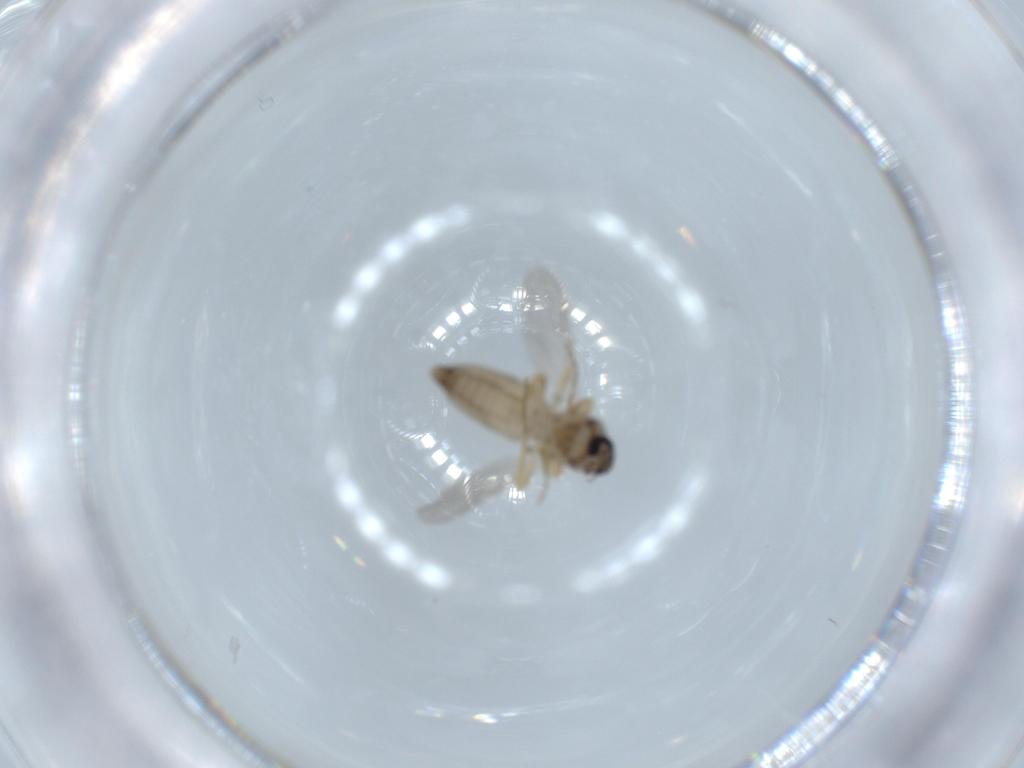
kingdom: Animalia
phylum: Arthropoda
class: Insecta
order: Diptera
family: Ceratopogonidae
